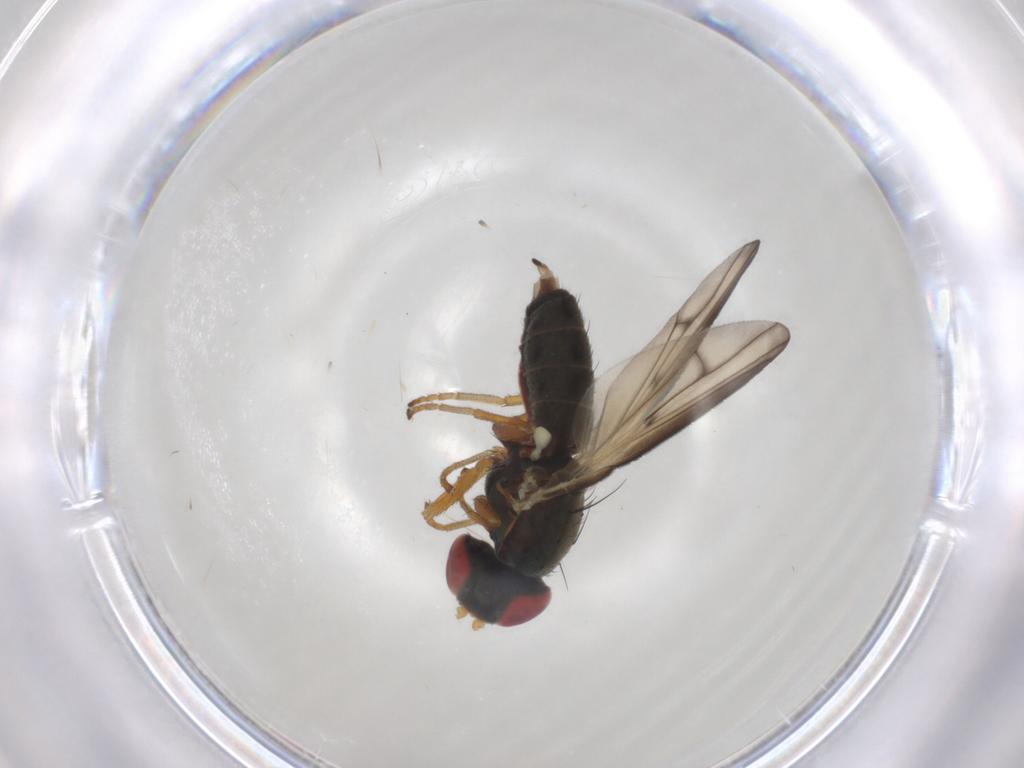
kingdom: Animalia
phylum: Arthropoda
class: Insecta
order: Diptera
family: Chamaemyiidae
